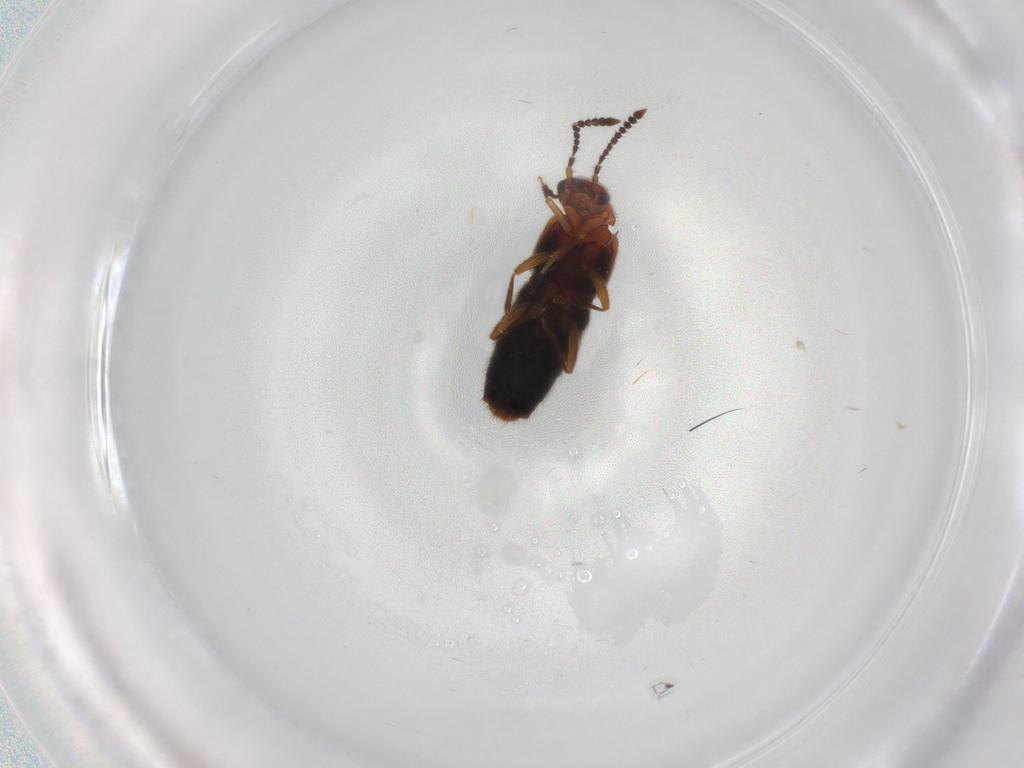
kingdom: Animalia
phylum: Arthropoda
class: Insecta
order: Coleoptera
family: Staphylinidae
